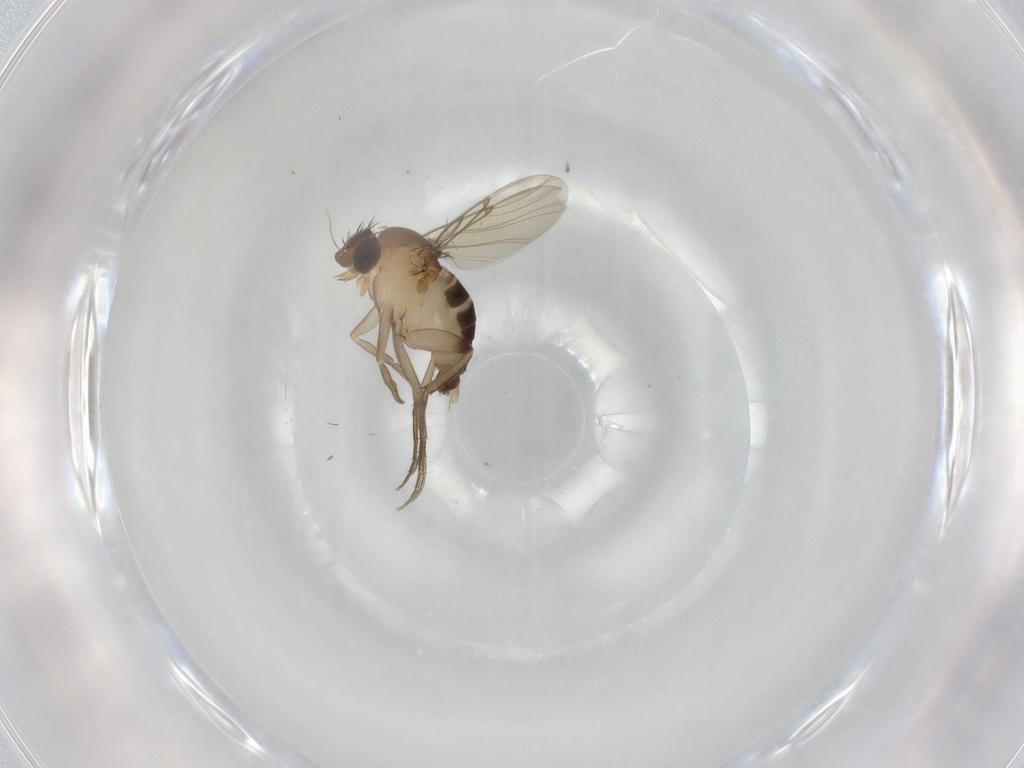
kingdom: Animalia
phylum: Arthropoda
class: Insecta
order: Diptera
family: Phoridae
